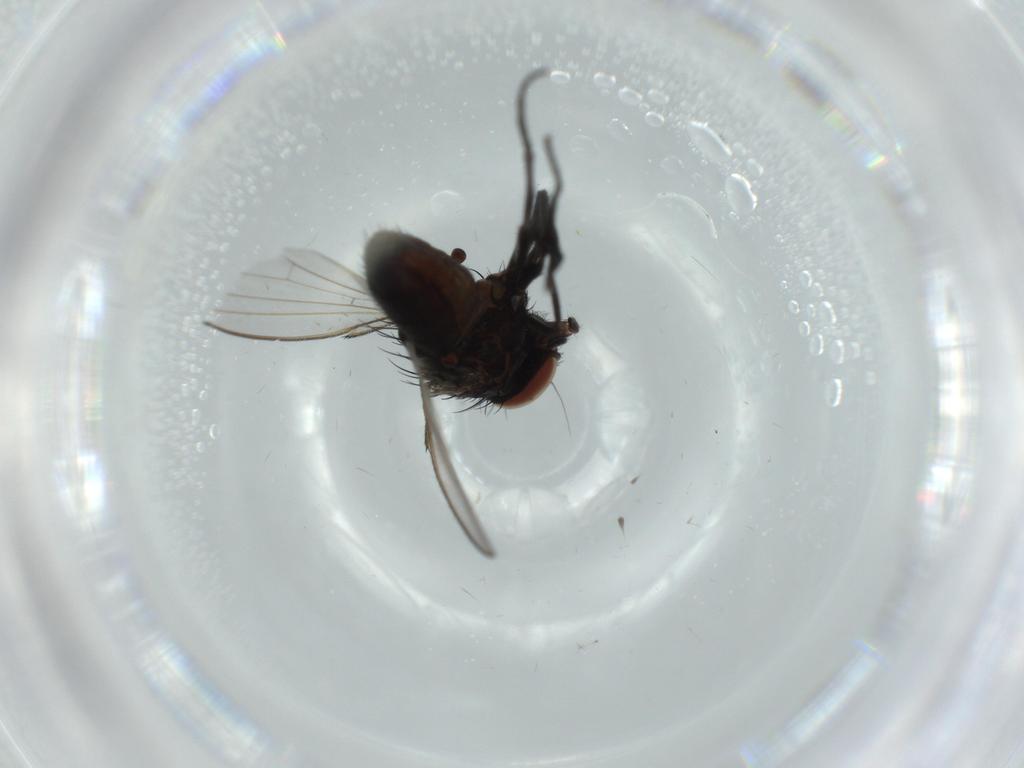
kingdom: Animalia
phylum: Arthropoda
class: Insecta
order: Diptera
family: Milichiidae
